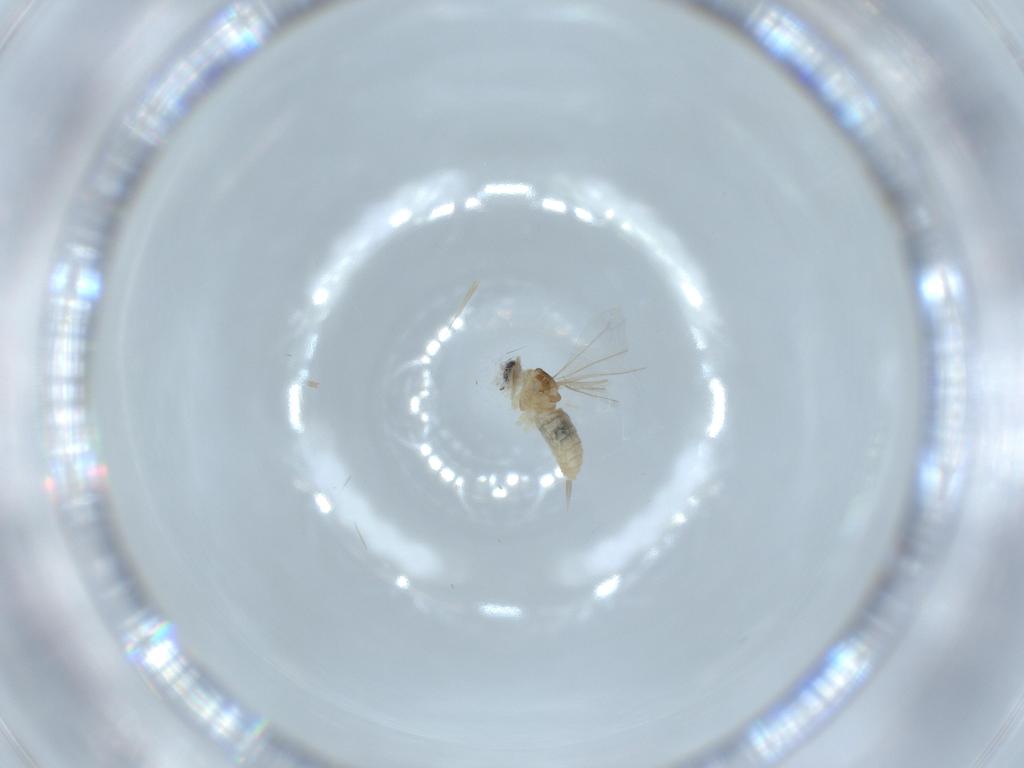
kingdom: Animalia
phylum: Arthropoda
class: Insecta
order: Diptera
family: Cecidomyiidae
